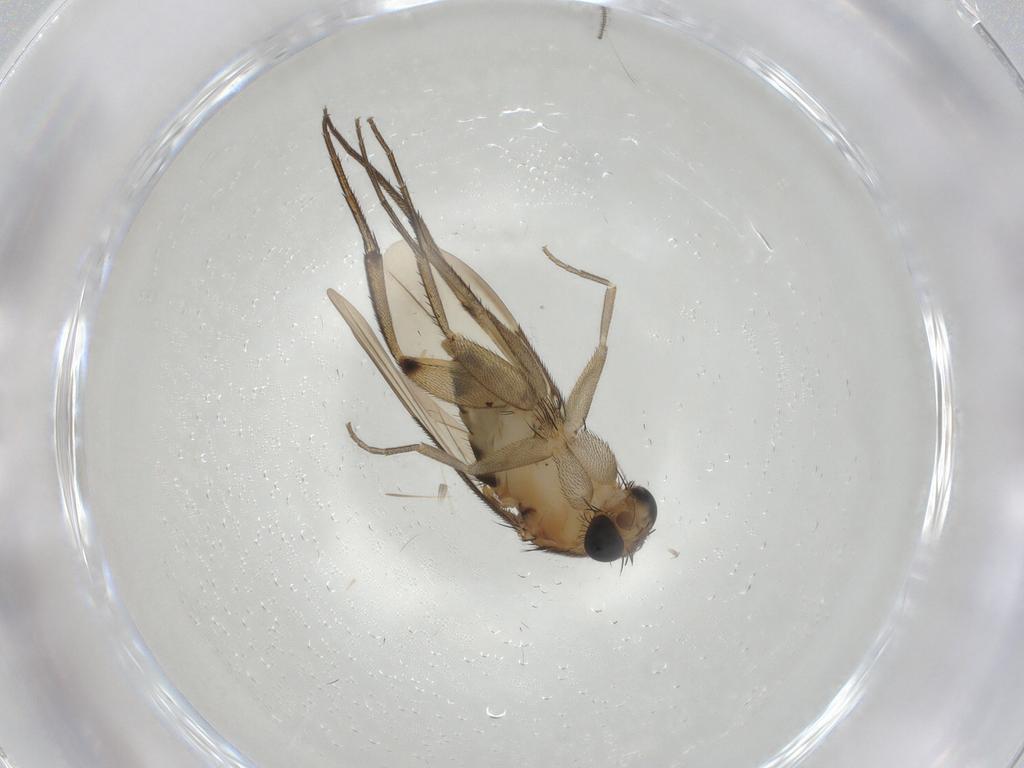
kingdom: Animalia
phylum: Arthropoda
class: Insecta
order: Diptera
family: Phoridae
